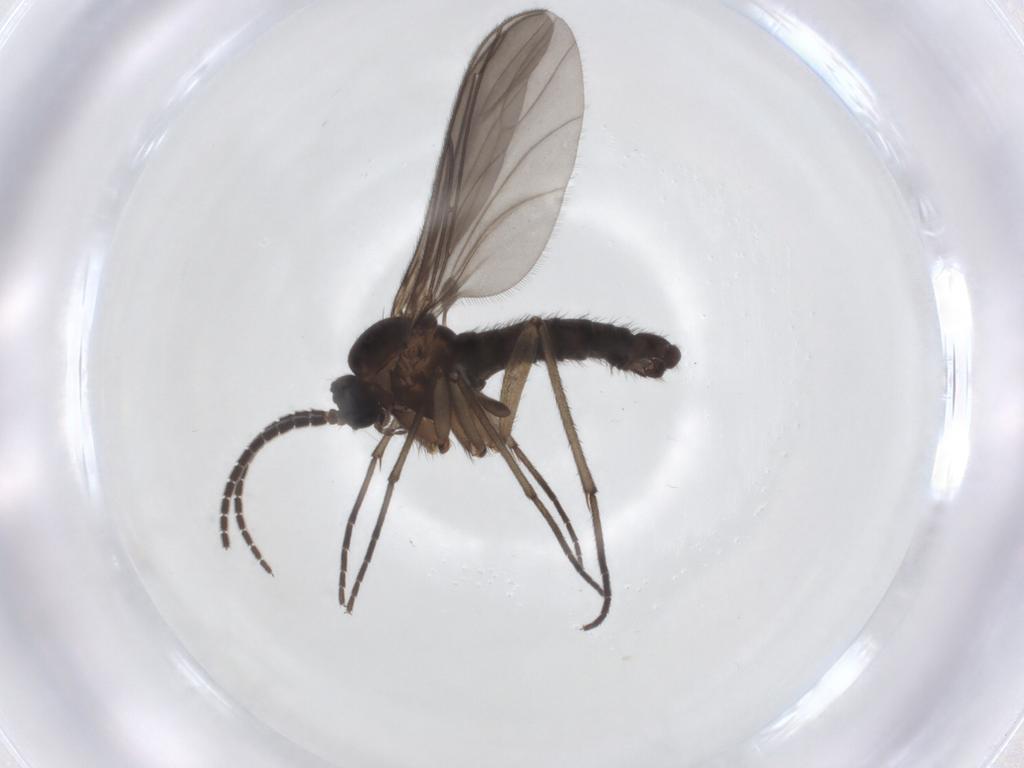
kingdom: Animalia
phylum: Arthropoda
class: Insecta
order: Diptera
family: Sciaridae
